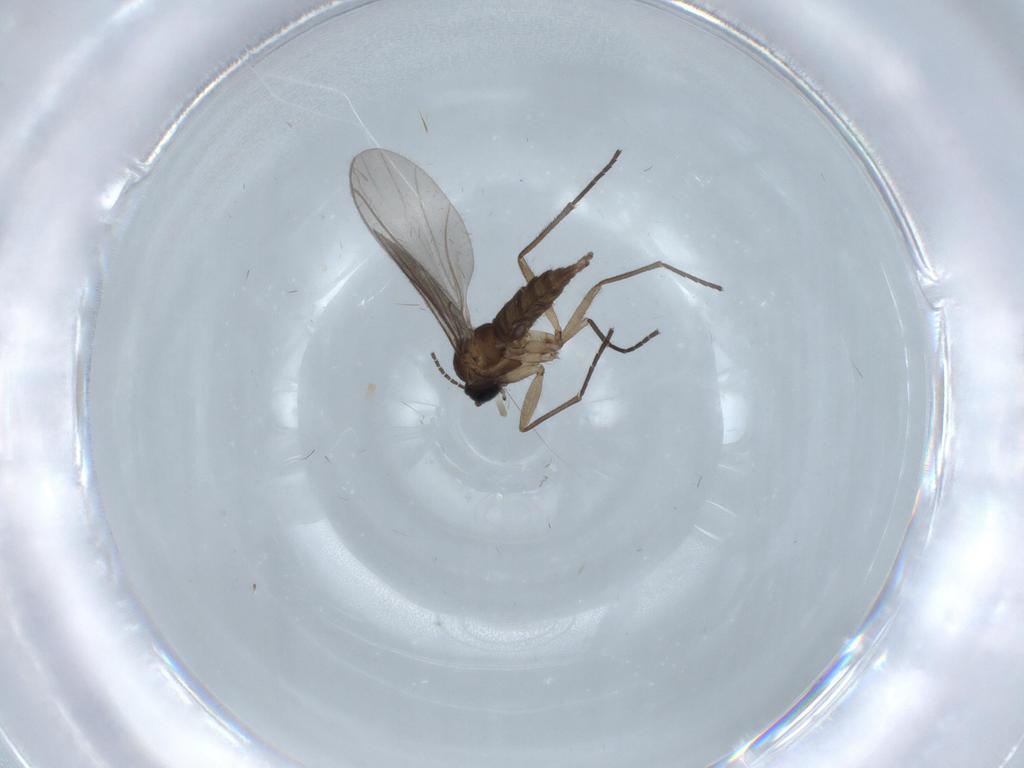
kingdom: Animalia
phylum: Arthropoda
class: Insecta
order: Diptera
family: Sciaridae
